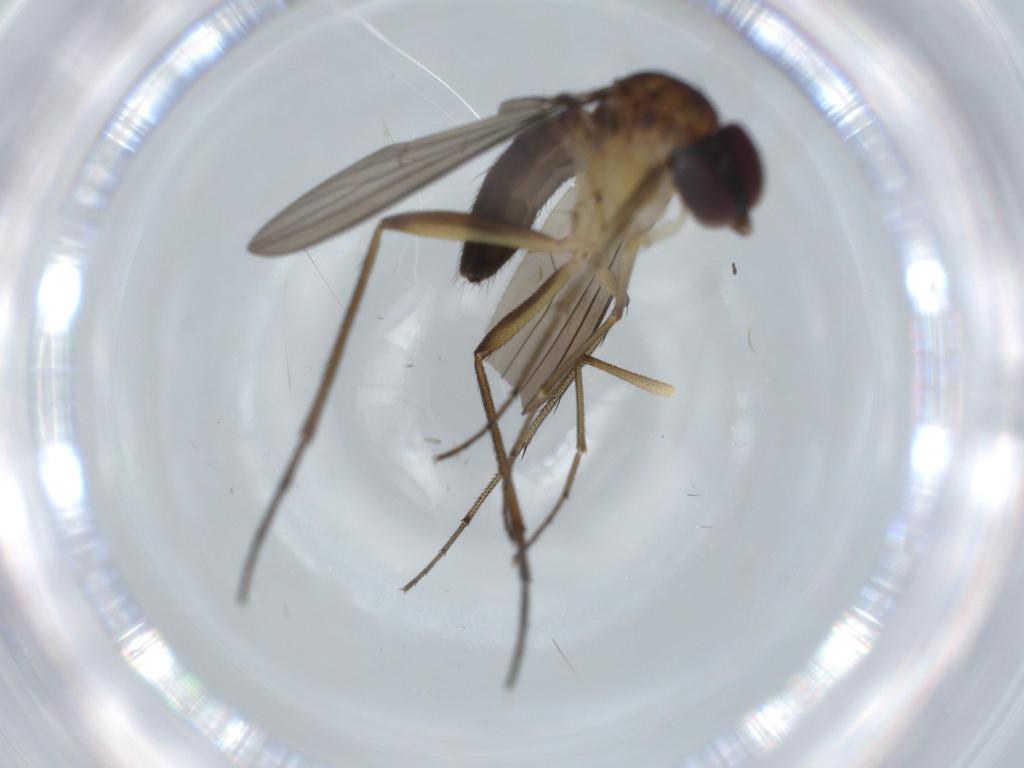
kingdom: Animalia
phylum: Arthropoda
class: Insecta
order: Diptera
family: Dolichopodidae
